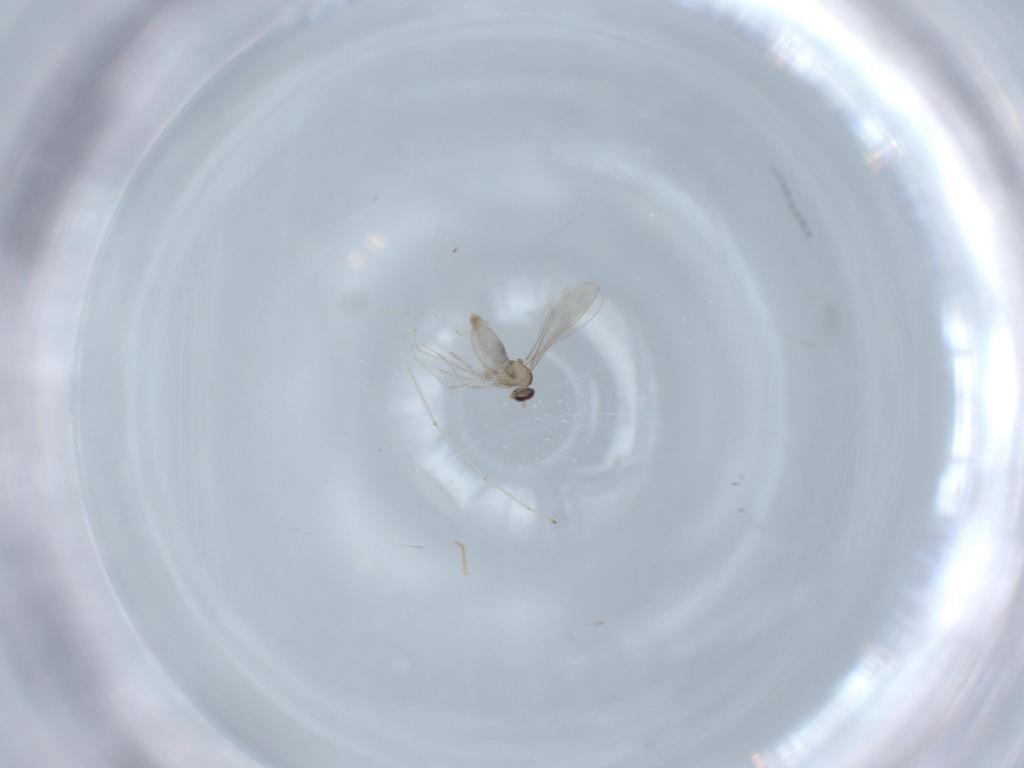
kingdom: Animalia
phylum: Arthropoda
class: Insecta
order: Diptera
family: Cecidomyiidae
